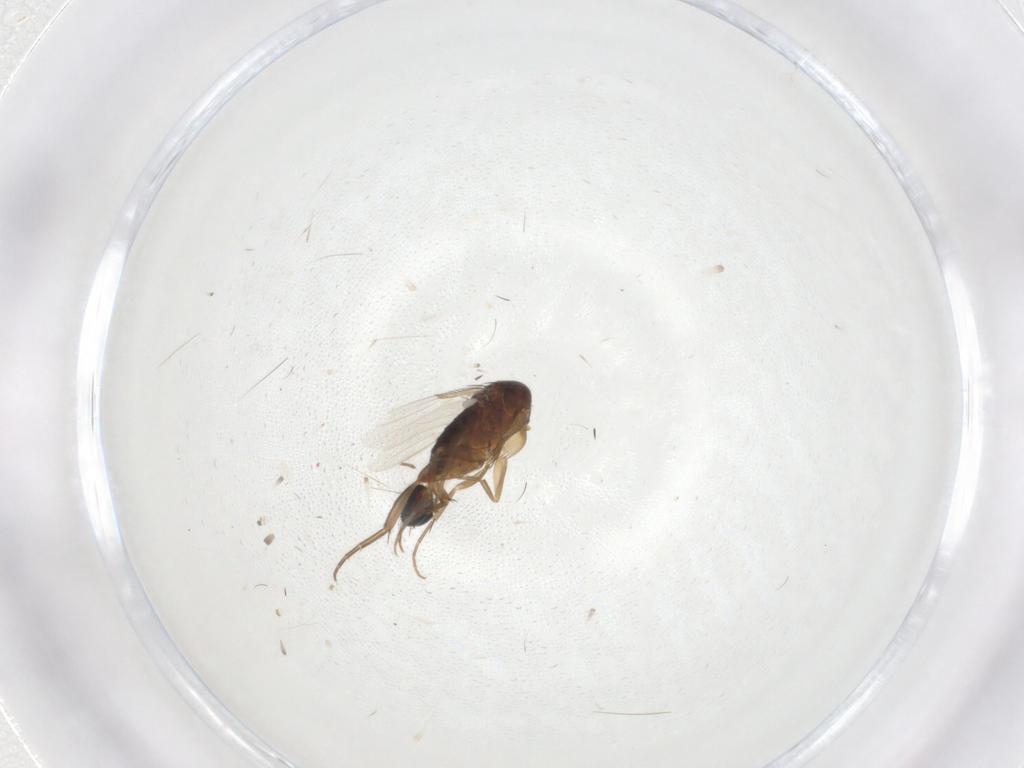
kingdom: Animalia
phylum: Arthropoda
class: Insecta
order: Diptera
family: Phoridae
